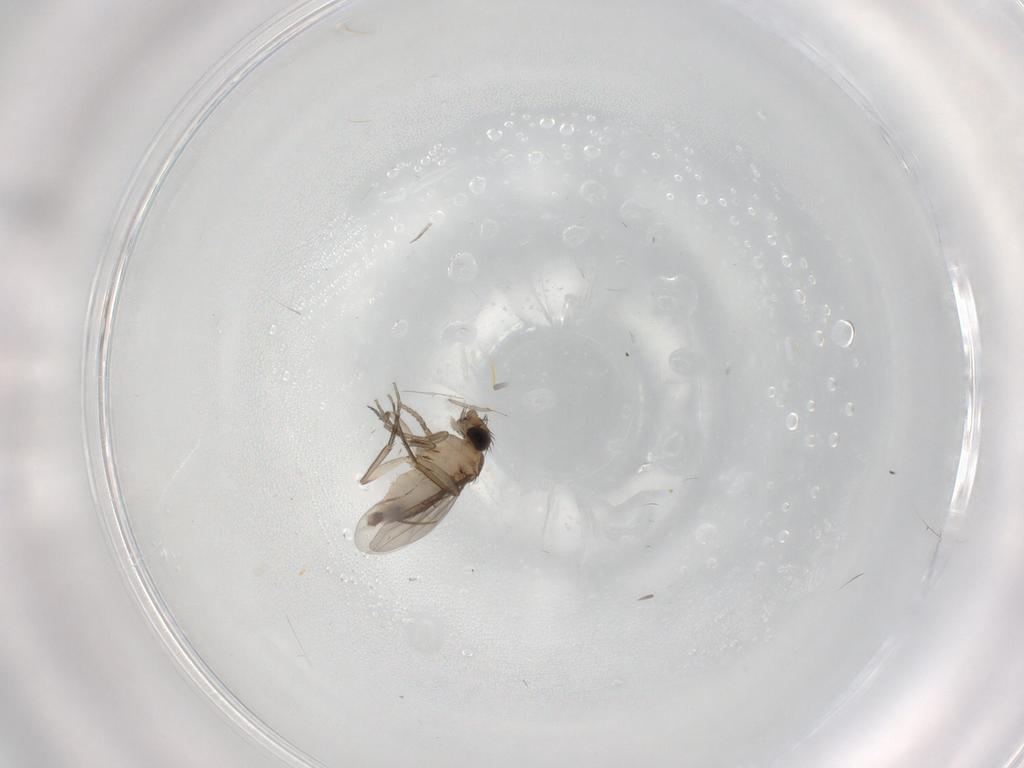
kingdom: Animalia
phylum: Arthropoda
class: Insecta
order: Diptera
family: Phoridae
